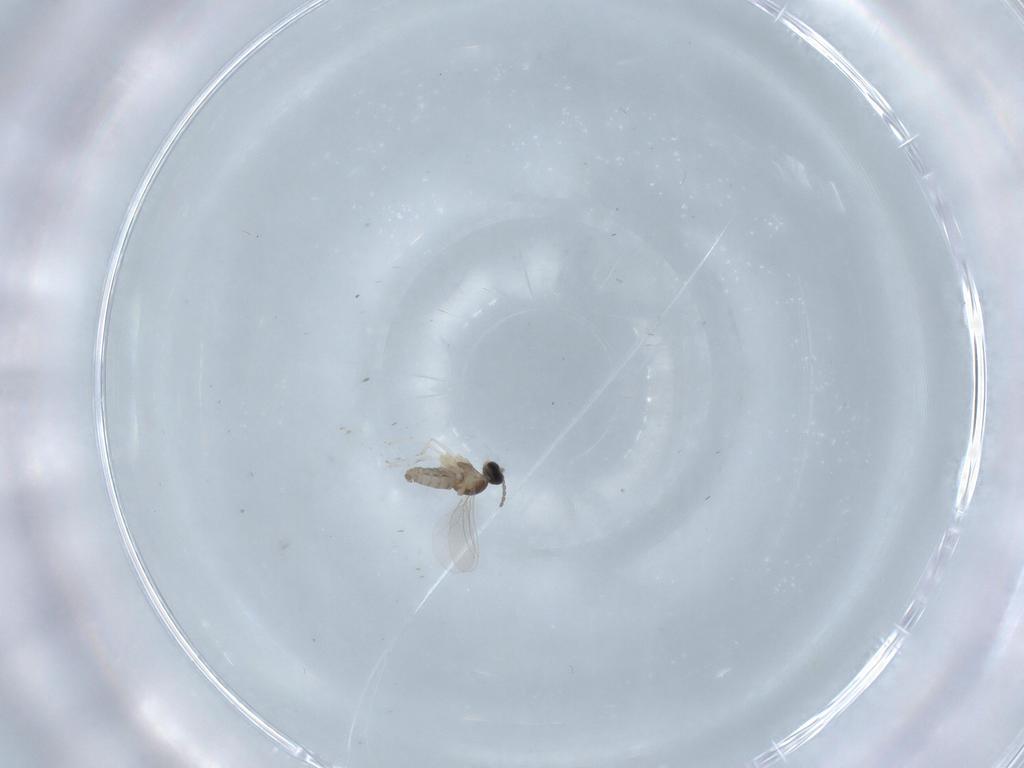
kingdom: Animalia
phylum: Arthropoda
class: Insecta
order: Diptera
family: Cecidomyiidae
